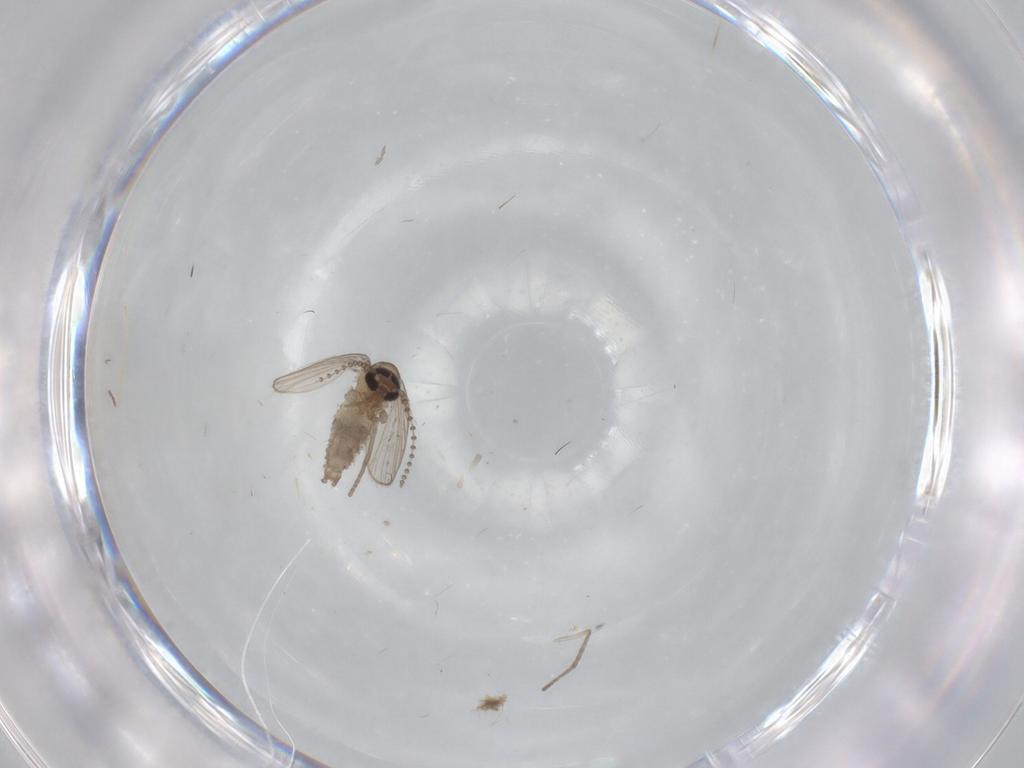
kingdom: Animalia
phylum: Arthropoda
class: Insecta
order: Diptera
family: Psychodidae
